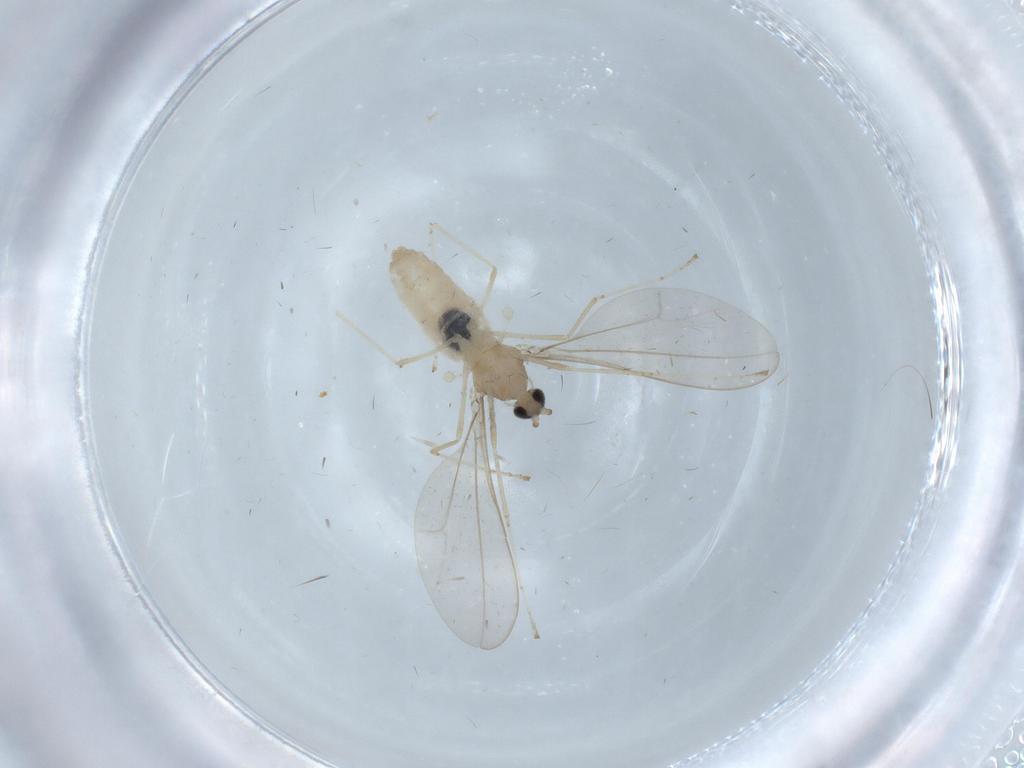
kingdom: Animalia
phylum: Arthropoda
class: Insecta
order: Diptera
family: Cecidomyiidae
